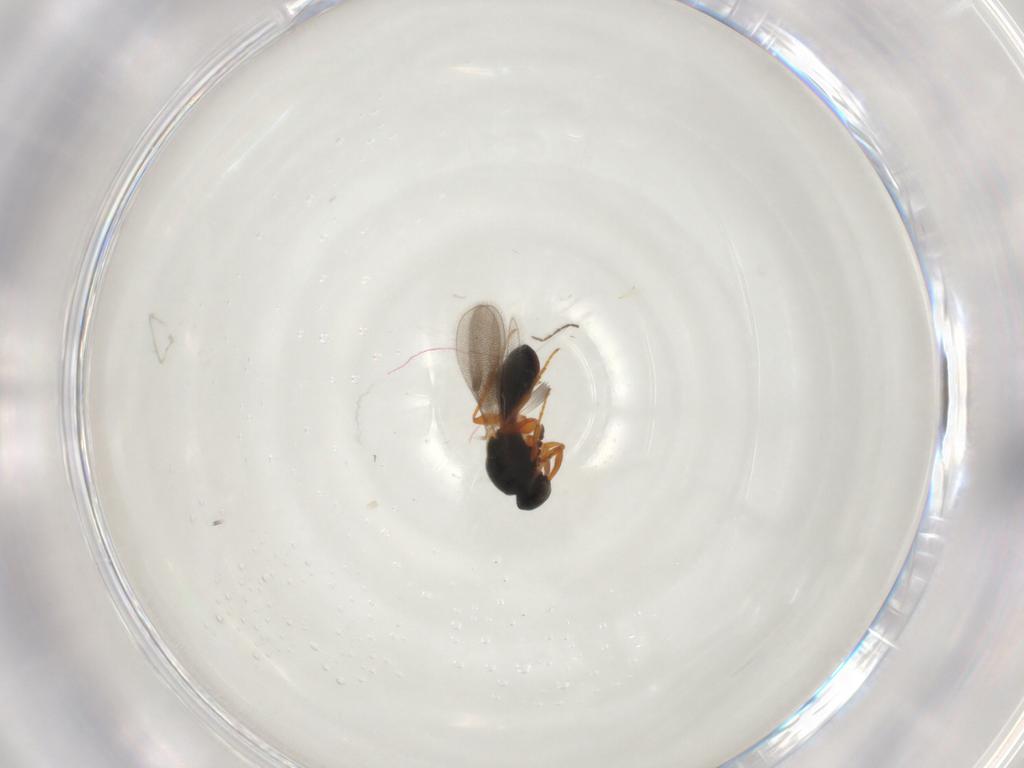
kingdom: Animalia
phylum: Arthropoda
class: Insecta
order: Hymenoptera
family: Platygastridae
